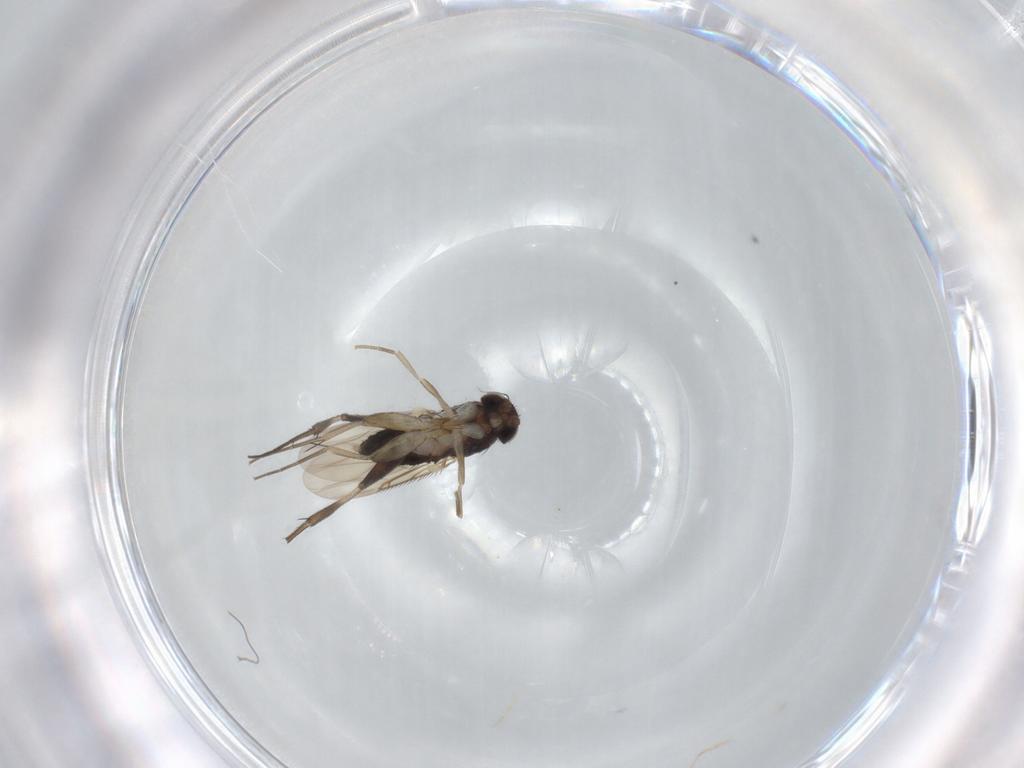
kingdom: Animalia
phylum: Arthropoda
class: Insecta
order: Diptera
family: Phoridae
